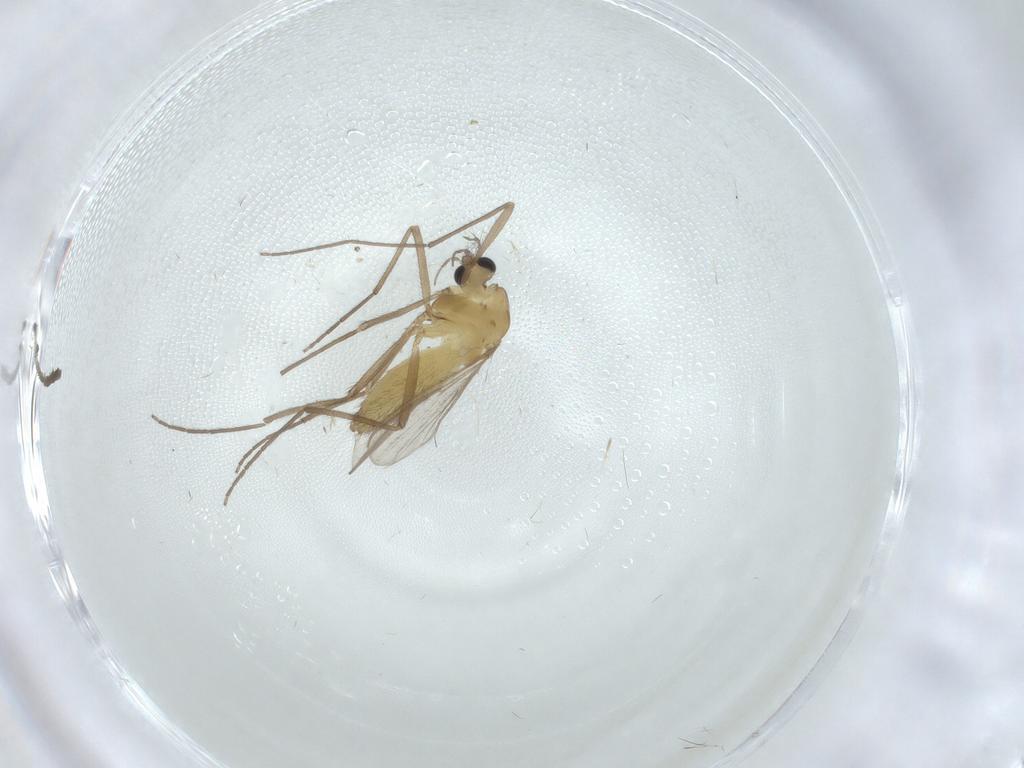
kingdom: Animalia
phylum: Arthropoda
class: Insecta
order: Diptera
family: Chironomidae
